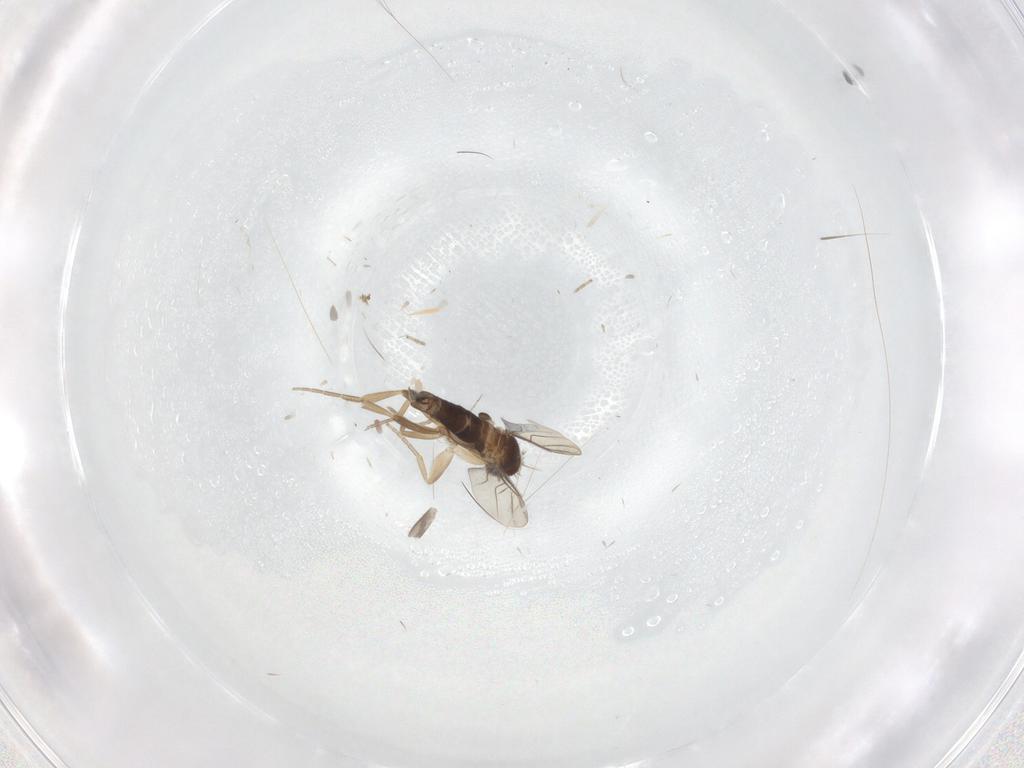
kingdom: Animalia
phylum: Arthropoda
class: Insecta
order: Diptera
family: Phoridae
